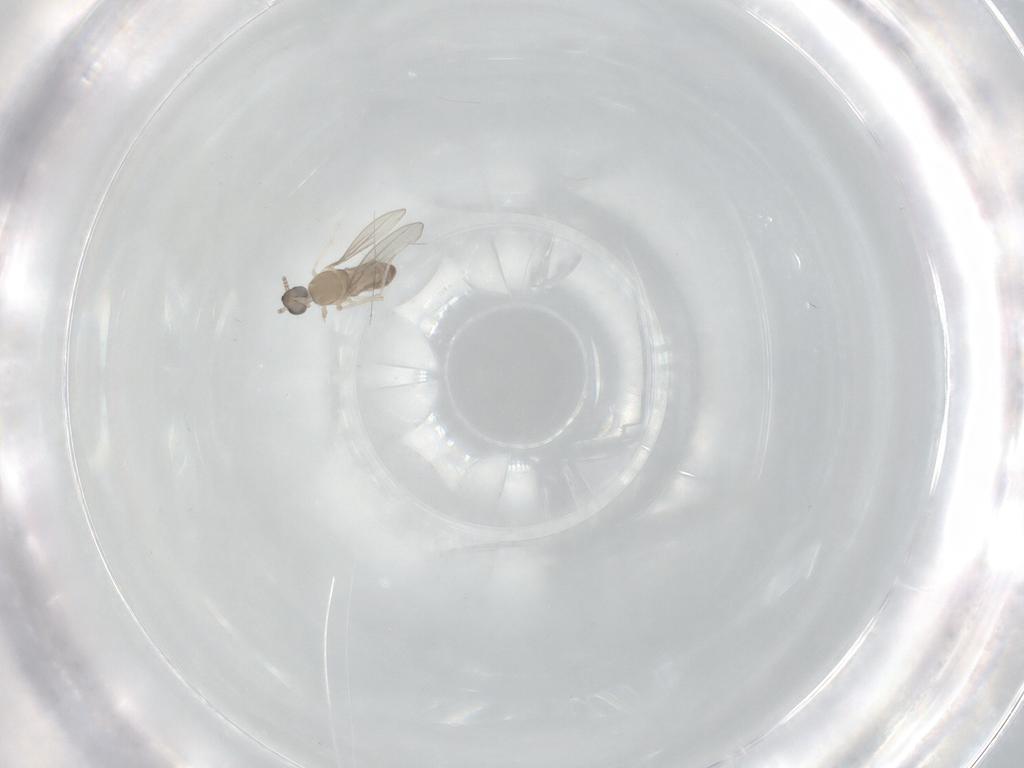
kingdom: Animalia
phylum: Arthropoda
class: Insecta
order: Diptera
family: Cecidomyiidae
